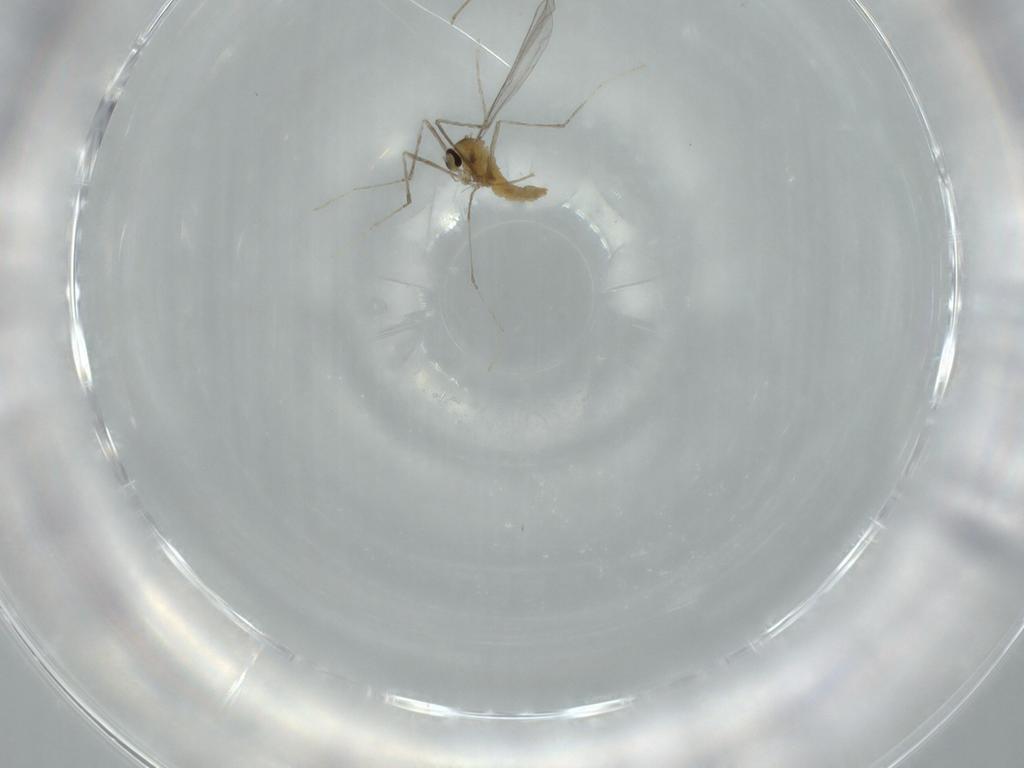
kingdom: Animalia
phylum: Arthropoda
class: Insecta
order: Diptera
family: Cecidomyiidae
